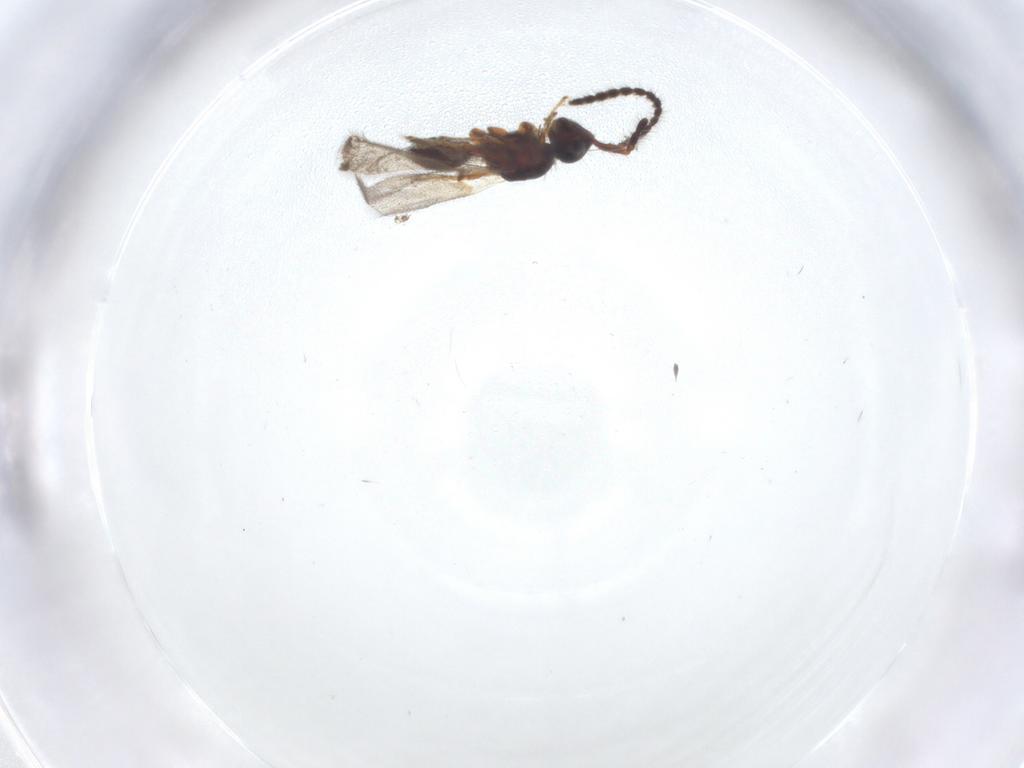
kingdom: Animalia
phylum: Arthropoda
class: Insecta
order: Hymenoptera
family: Diapriidae
